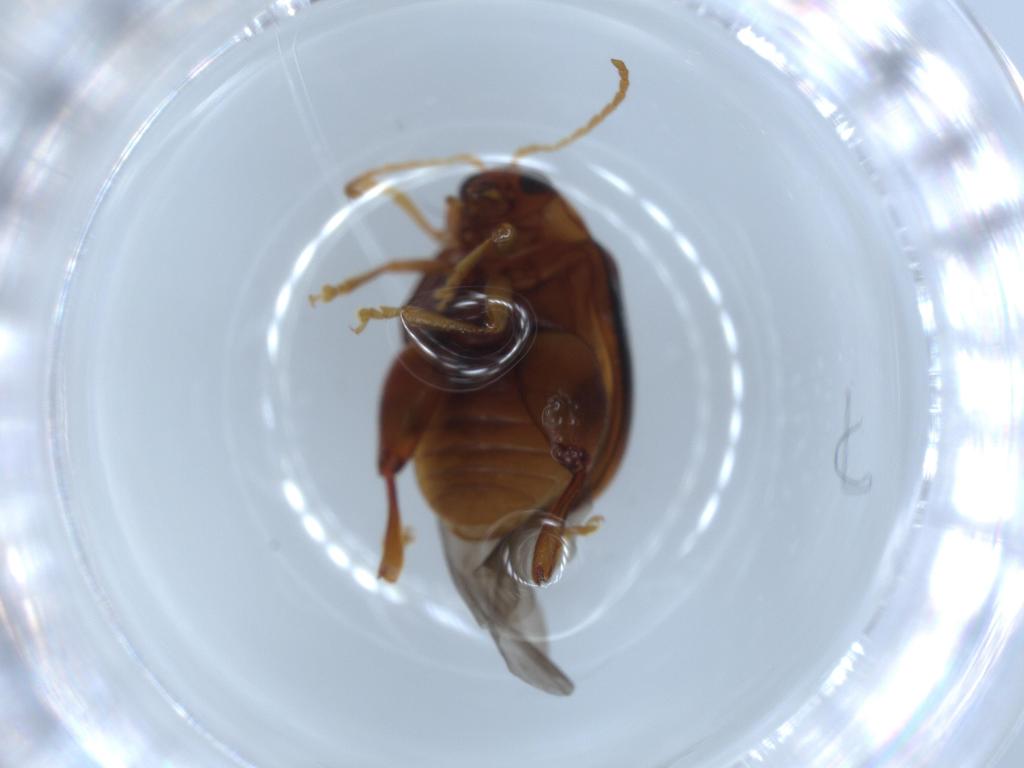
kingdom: Animalia
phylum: Arthropoda
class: Insecta
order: Coleoptera
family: Chrysomelidae
